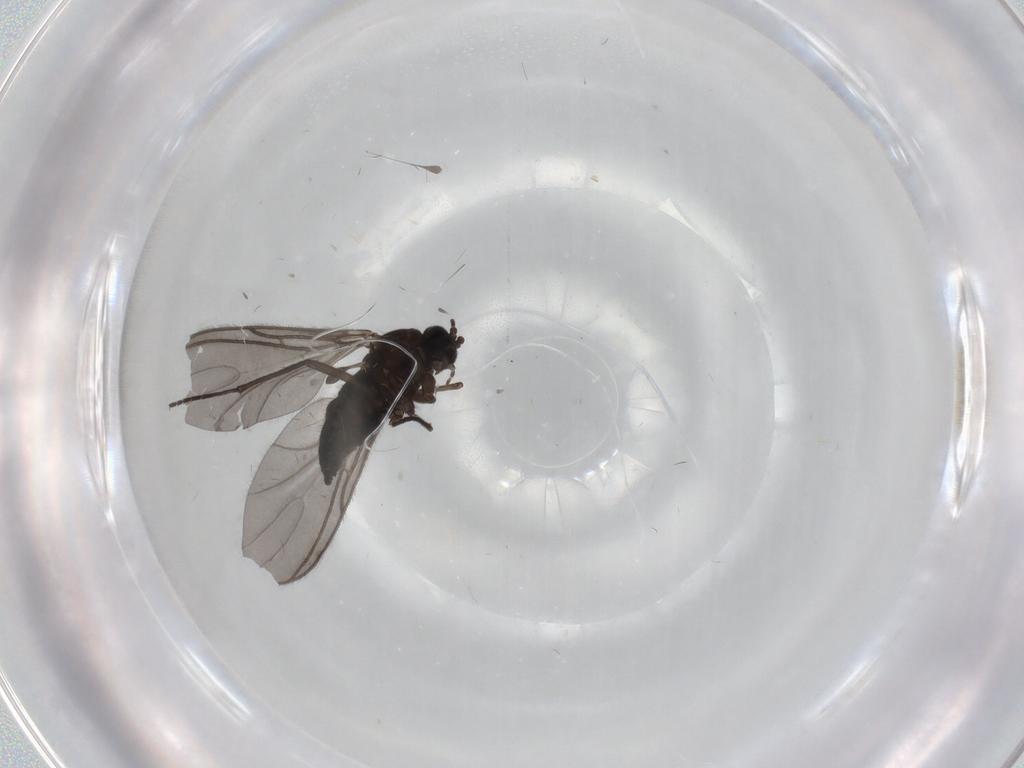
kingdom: Animalia
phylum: Arthropoda
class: Insecta
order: Diptera
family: Sciaridae
